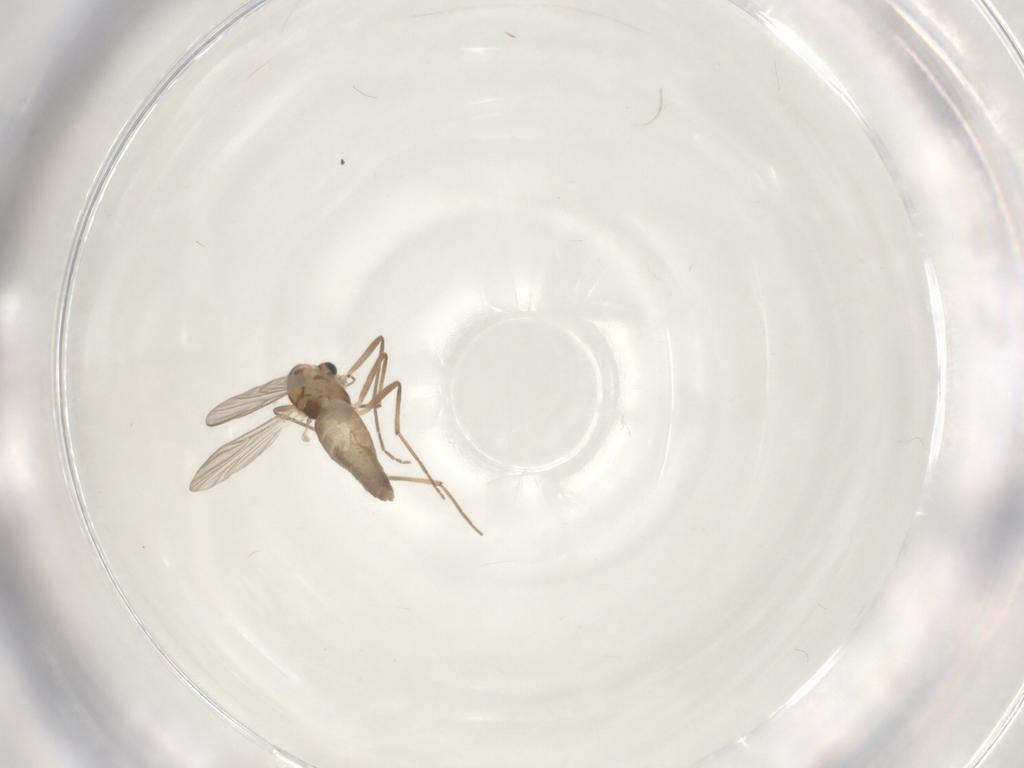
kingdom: Animalia
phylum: Arthropoda
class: Insecta
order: Diptera
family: Chironomidae
